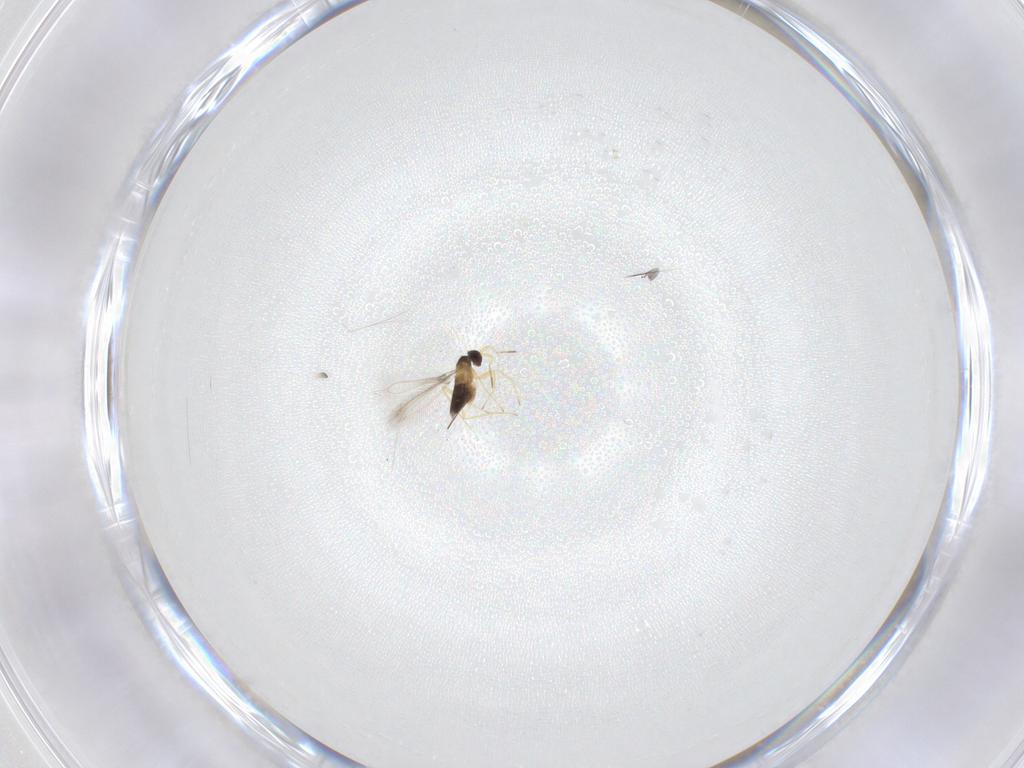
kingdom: Animalia
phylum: Arthropoda
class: Insecta
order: Hymenoptera
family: Mymaridae
